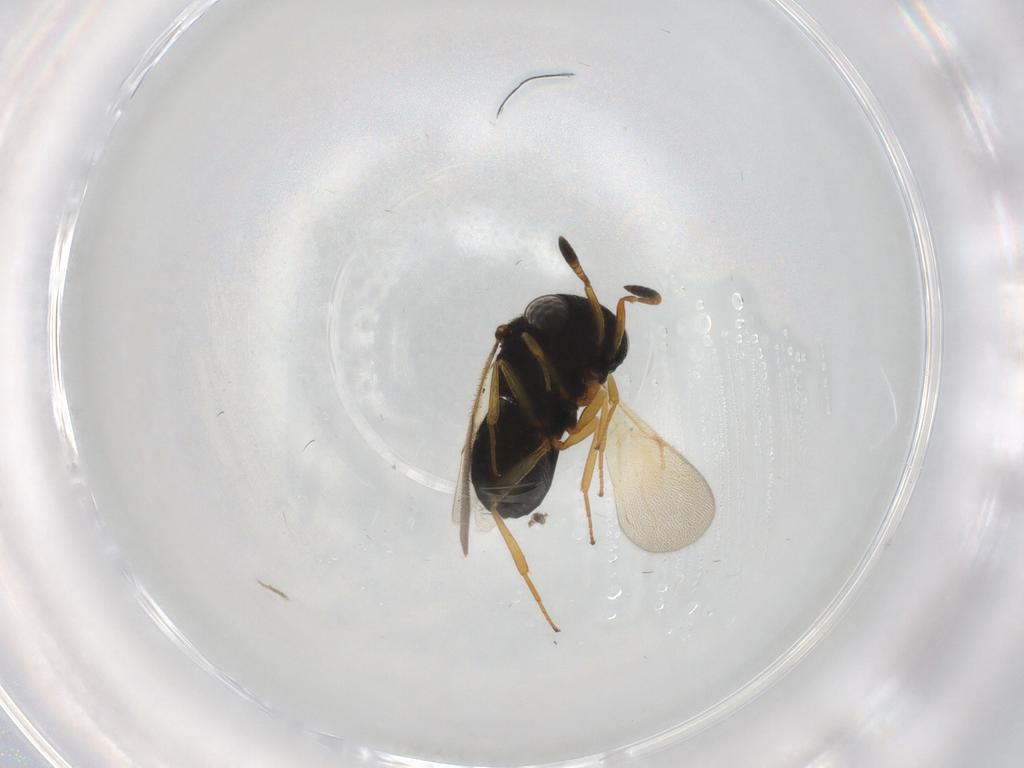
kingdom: Animalia
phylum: Arthropoda
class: Insecta
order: Hymenoptera
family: Scelionidae
